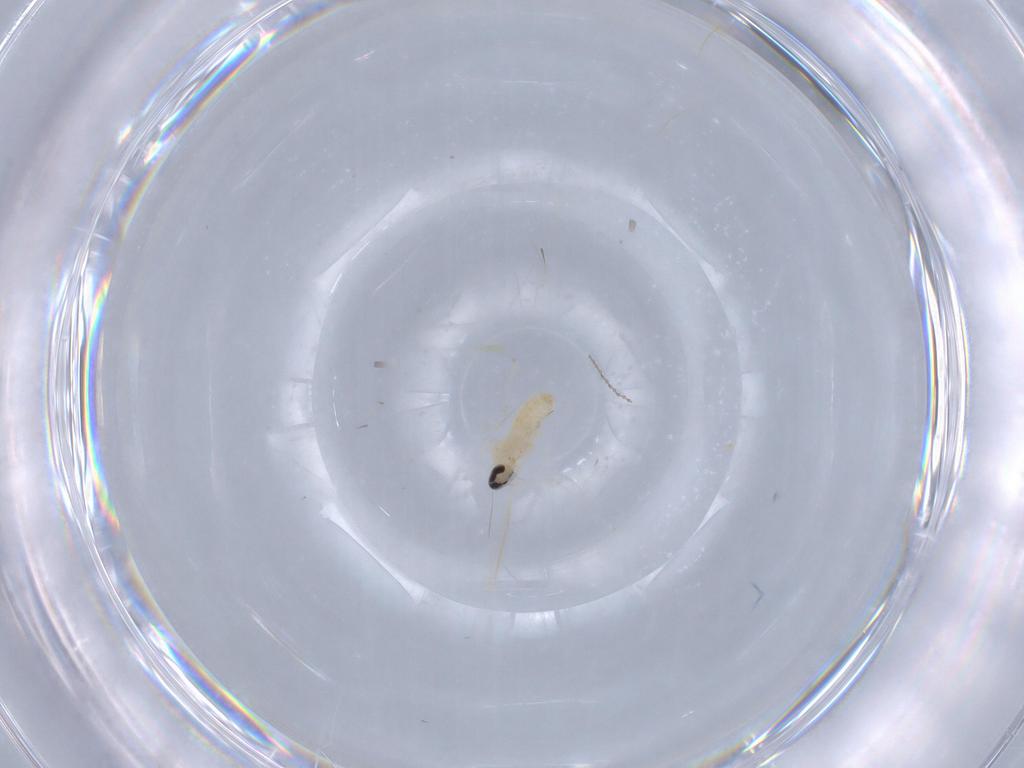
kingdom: Animalia
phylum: Arthropoda
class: Insecta
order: Diptera
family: Cecidomyiidae
